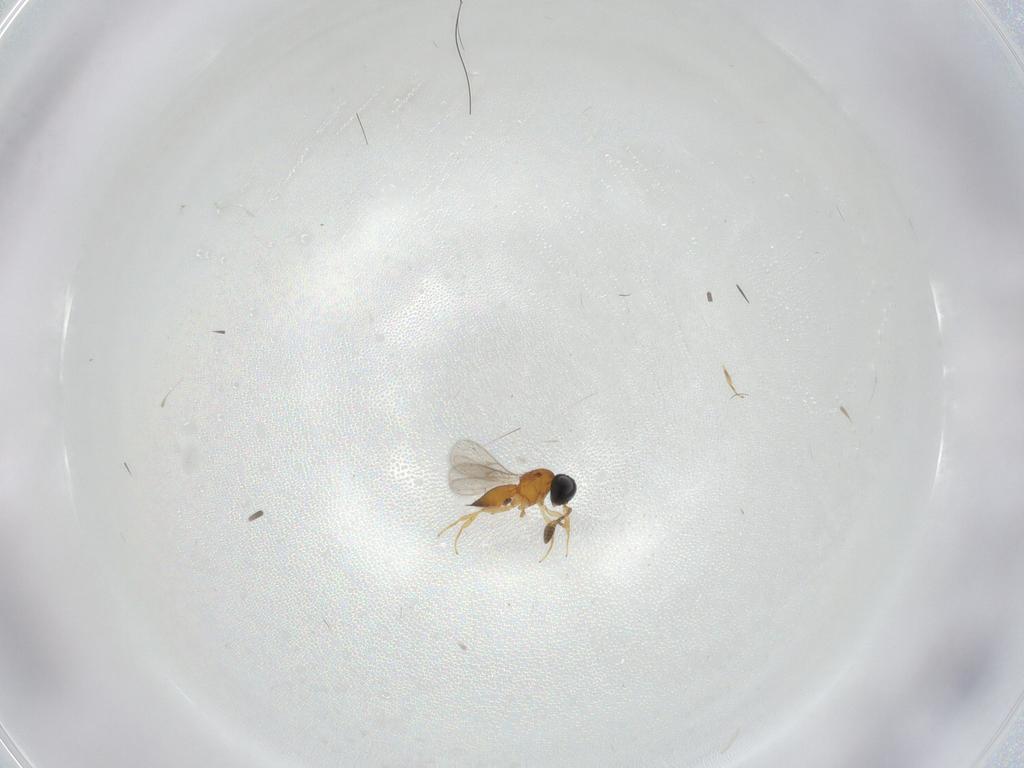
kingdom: Animalia
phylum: Arthropoda
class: Insecta
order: Hymenoptera
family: Scelionidae
